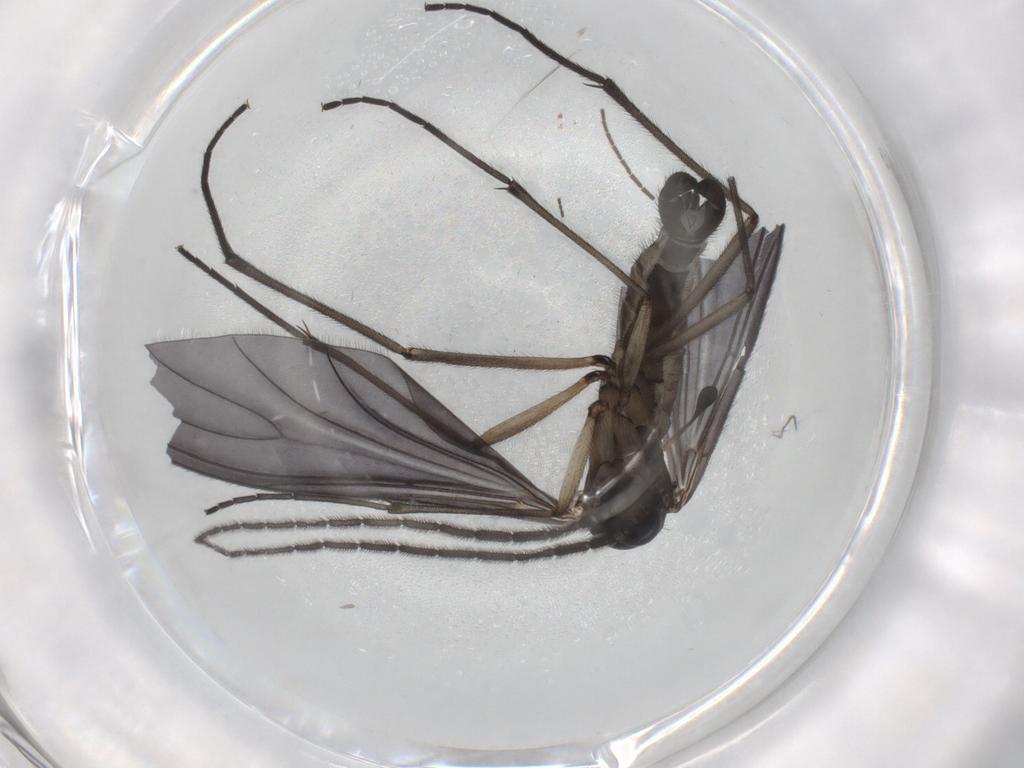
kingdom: Animalia
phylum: Arthropoda
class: Insecta
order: Diptera
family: Sciaridae
